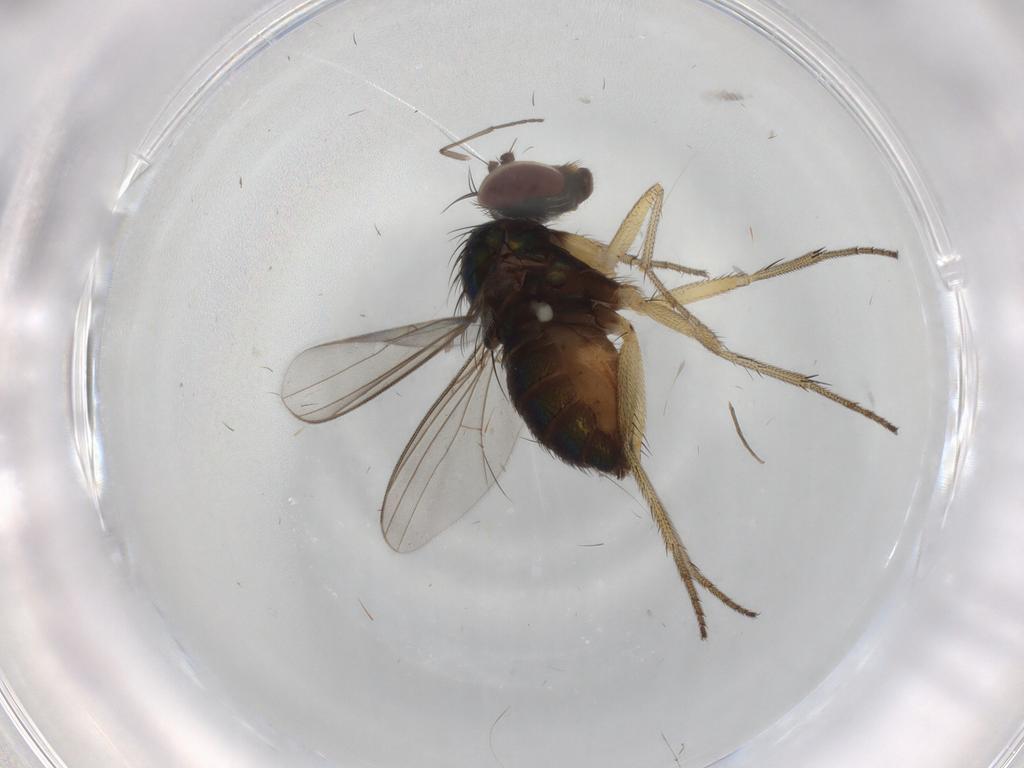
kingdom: Animalia
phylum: Arthropoda
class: Insecta
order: Diptera
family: Sciaridae
